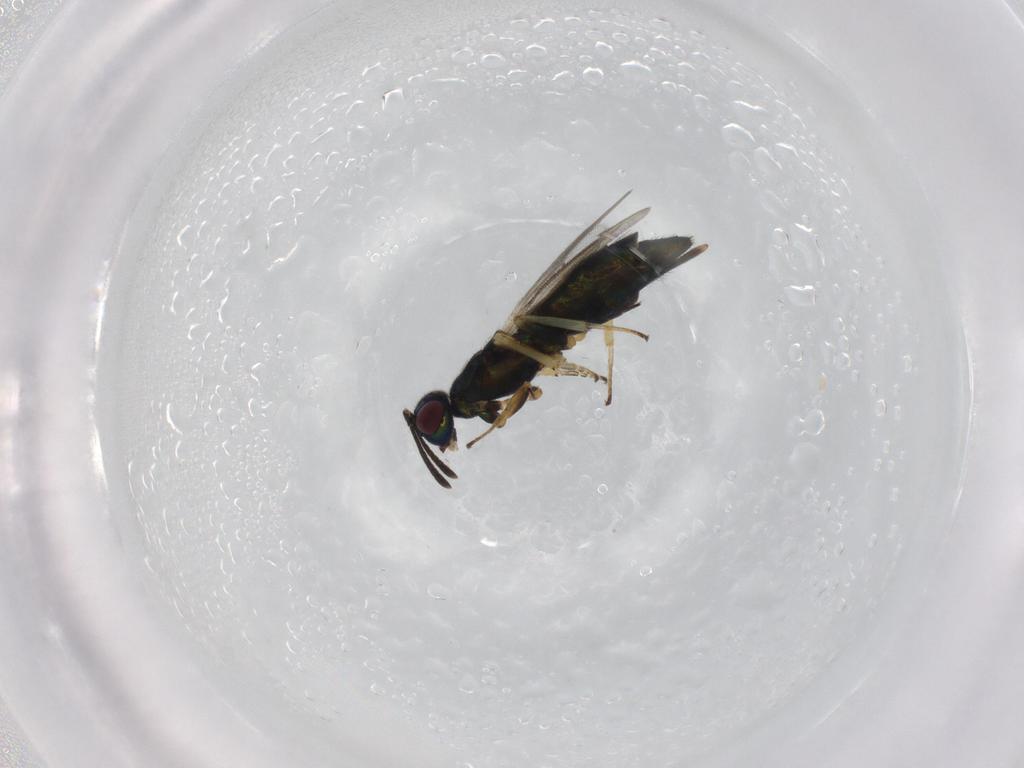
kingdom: Animalia
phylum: Arthropoda
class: Insecta
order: Hymenoptera
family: Eupelmidae
